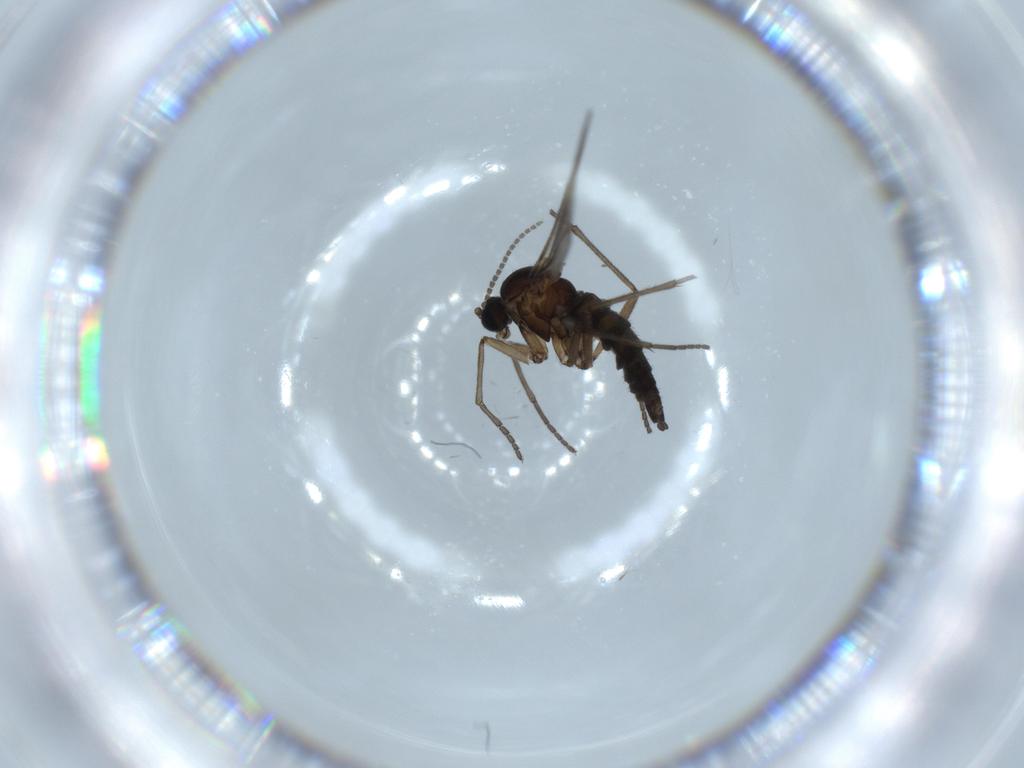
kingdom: Animalia
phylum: Arthropoda
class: Insecta
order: Diptera
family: Sciaridae
